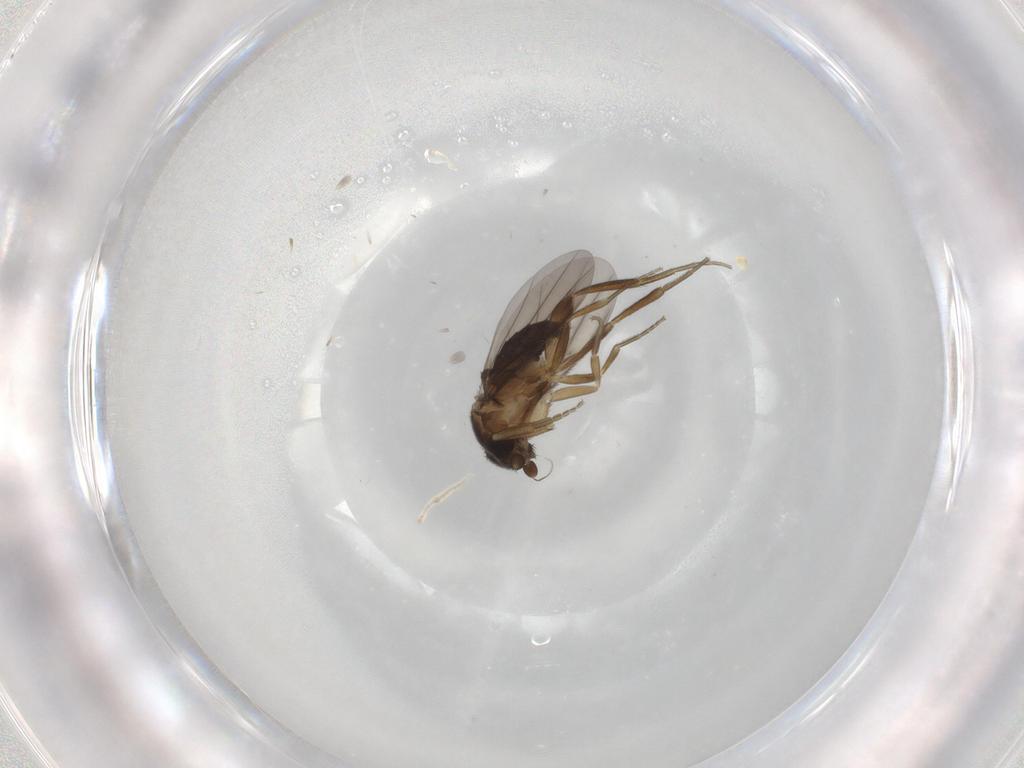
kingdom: Animalia
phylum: Arthropoda
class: Insecta
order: Diptera
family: Phoridae
